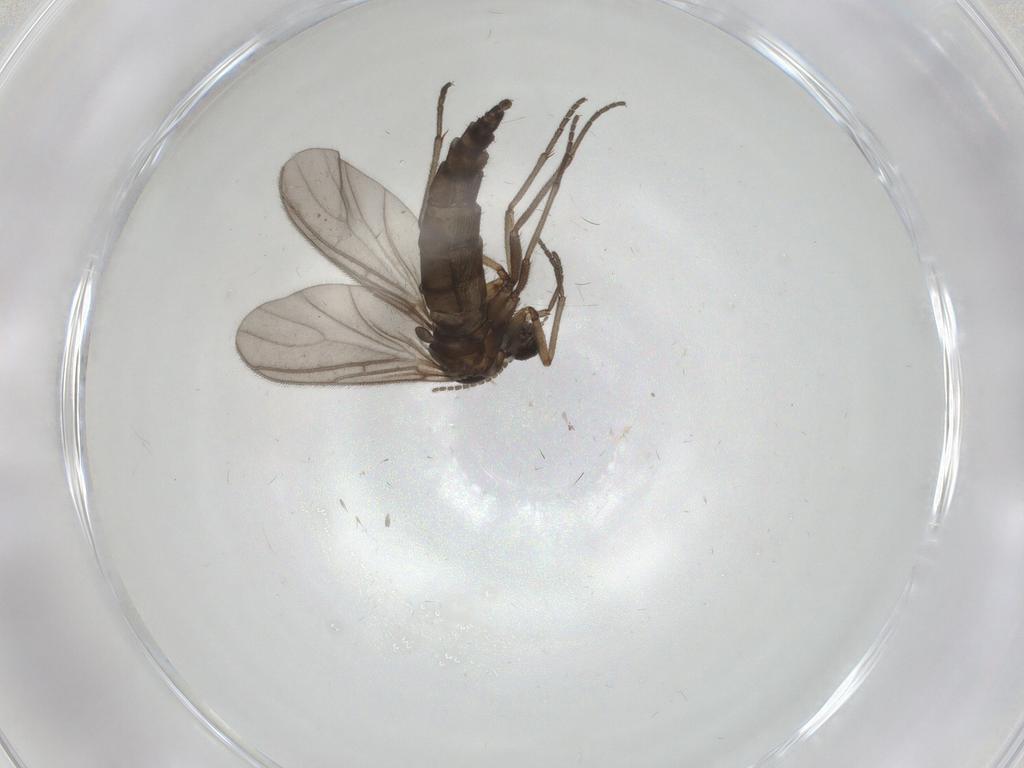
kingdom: Animalia
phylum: Arthropoda
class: Insecta
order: Diptera
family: Sciaridae
